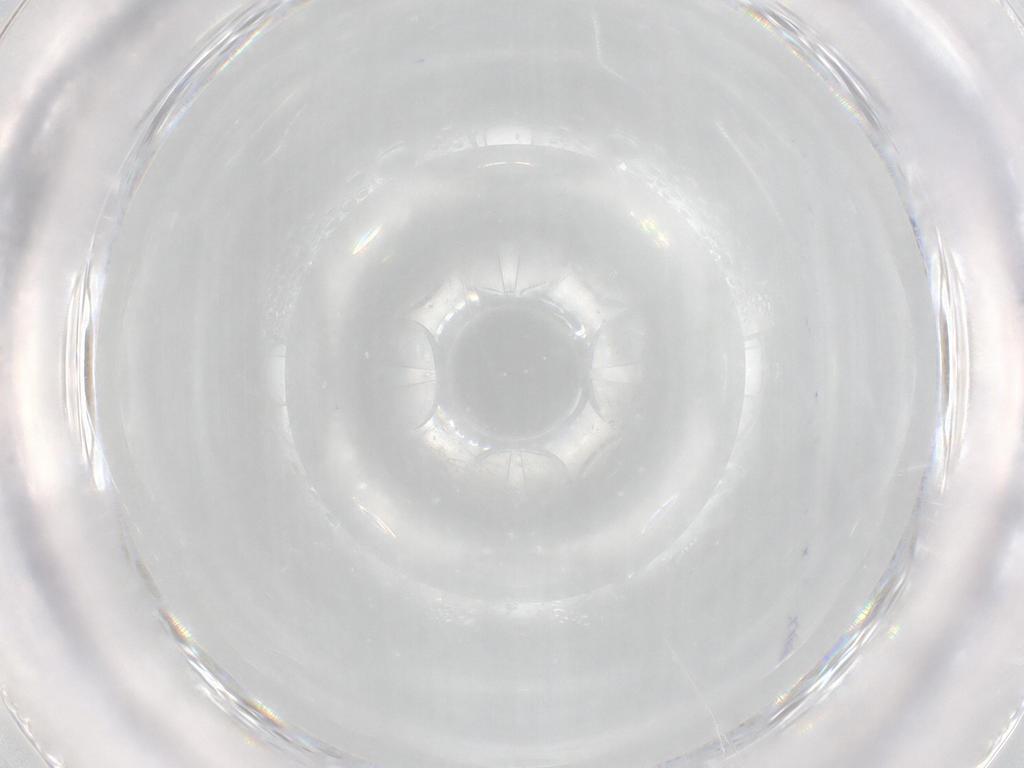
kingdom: Animalia
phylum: Arthropoda
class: Insecta
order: Diptera
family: Psychodidae
